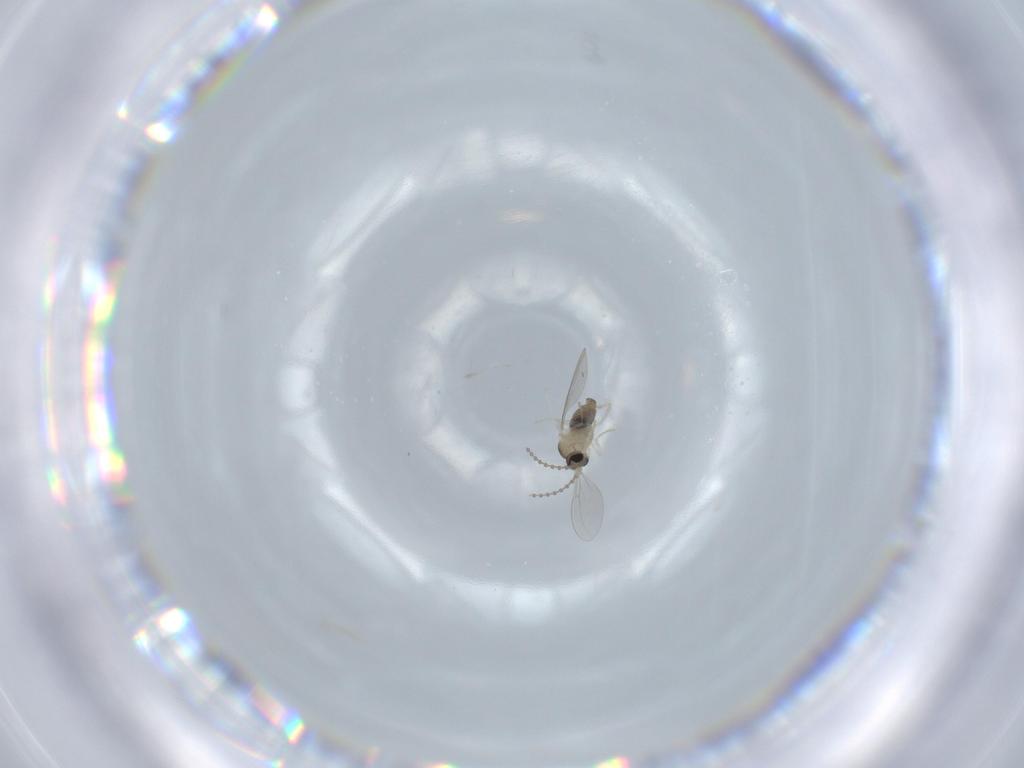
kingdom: Animalia
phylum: Arthropoda
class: Insecta
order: Diptera
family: Cecidomyiidae
